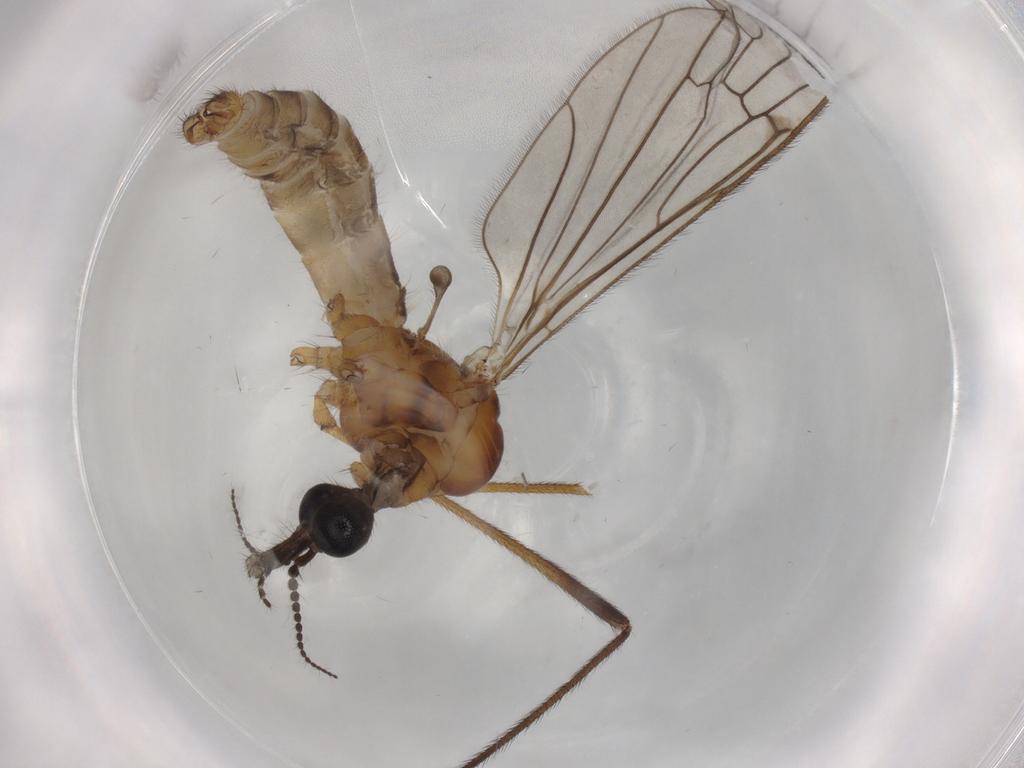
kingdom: Animalia
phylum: Arthropoda
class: Insecta
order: Diptera
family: Limoniidae
